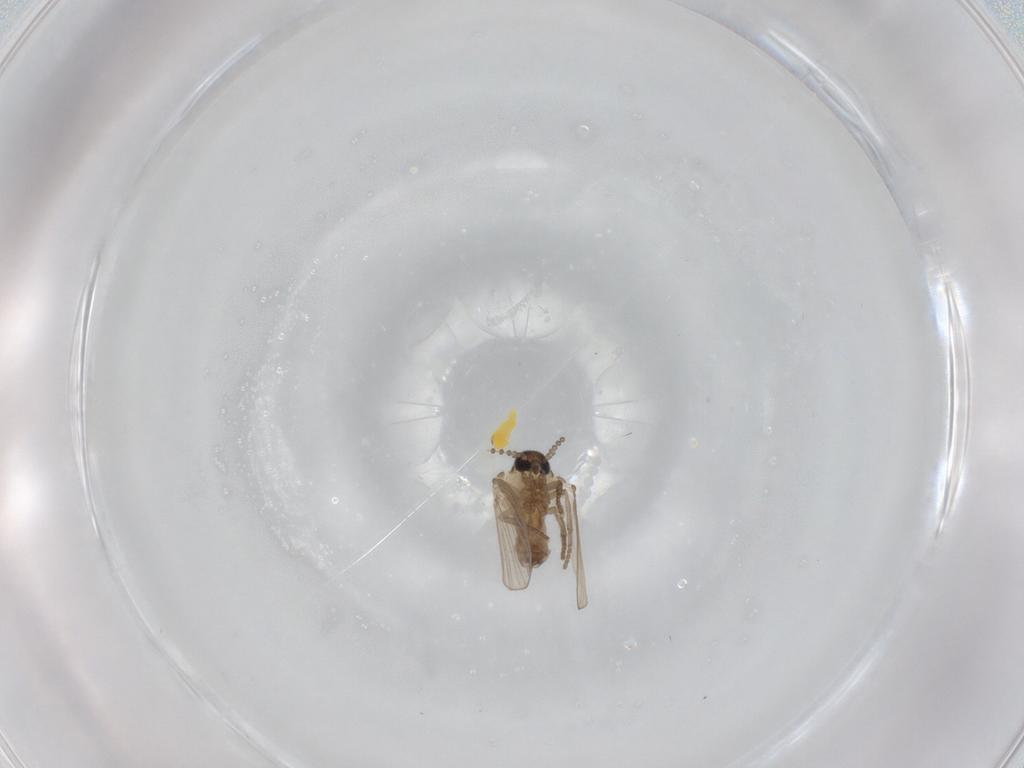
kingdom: Animalia
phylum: Arthropoda
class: Insecta
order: Diptera
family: Psychodidae
